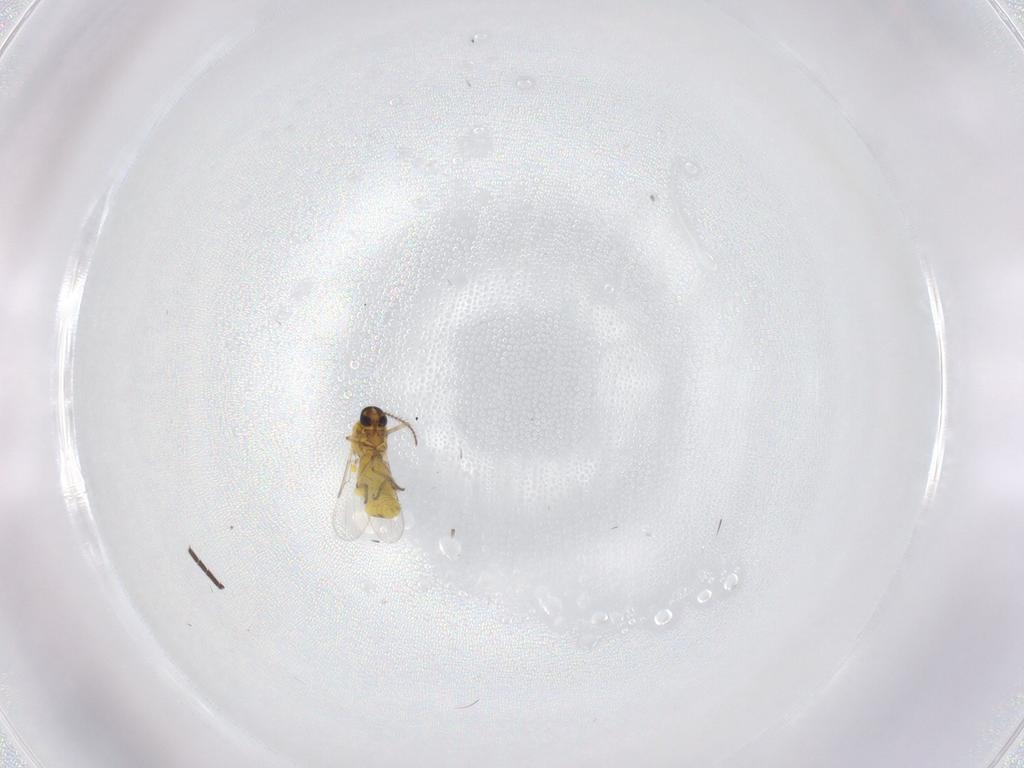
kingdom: Animalia
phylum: Arthropoda
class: Insecta
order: Diptera
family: Ceratopogonidae
